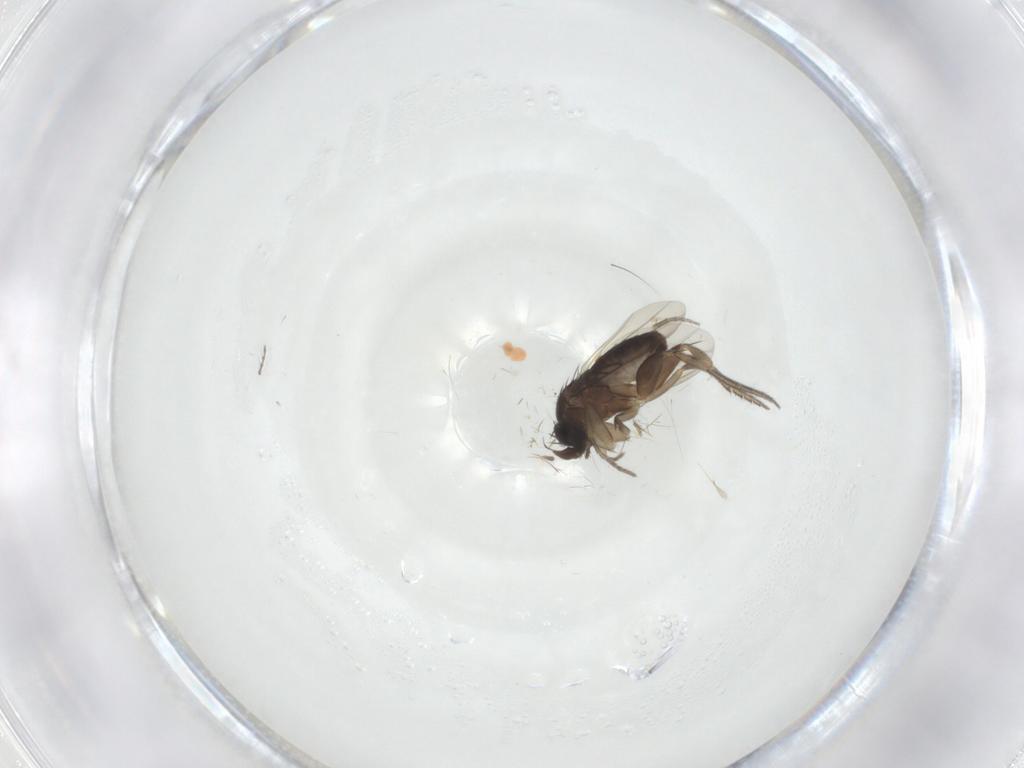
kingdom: Animalia
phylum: Arthropoda
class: Insecta
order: Diptera
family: Phoridae
